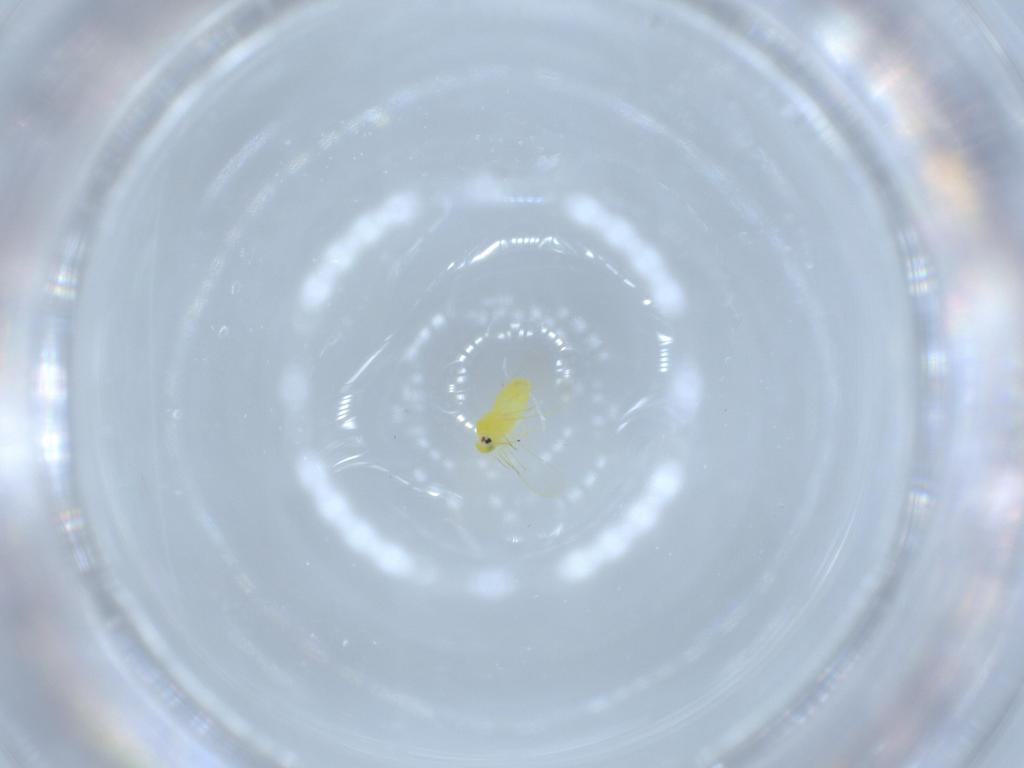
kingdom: Animalia
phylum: Arthropoda
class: Insecta
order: Hemiptera
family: Aleyrodidae
